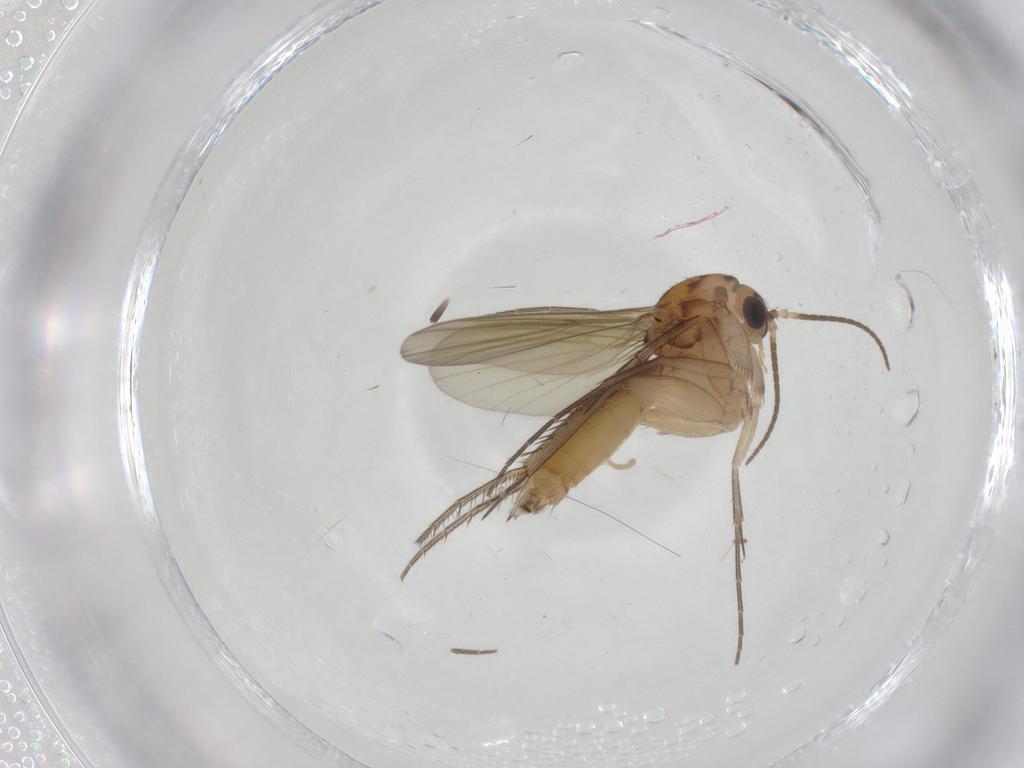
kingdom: Animalia
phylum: Arthropoda
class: Insecta
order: Diptera
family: Mycetophilidae
